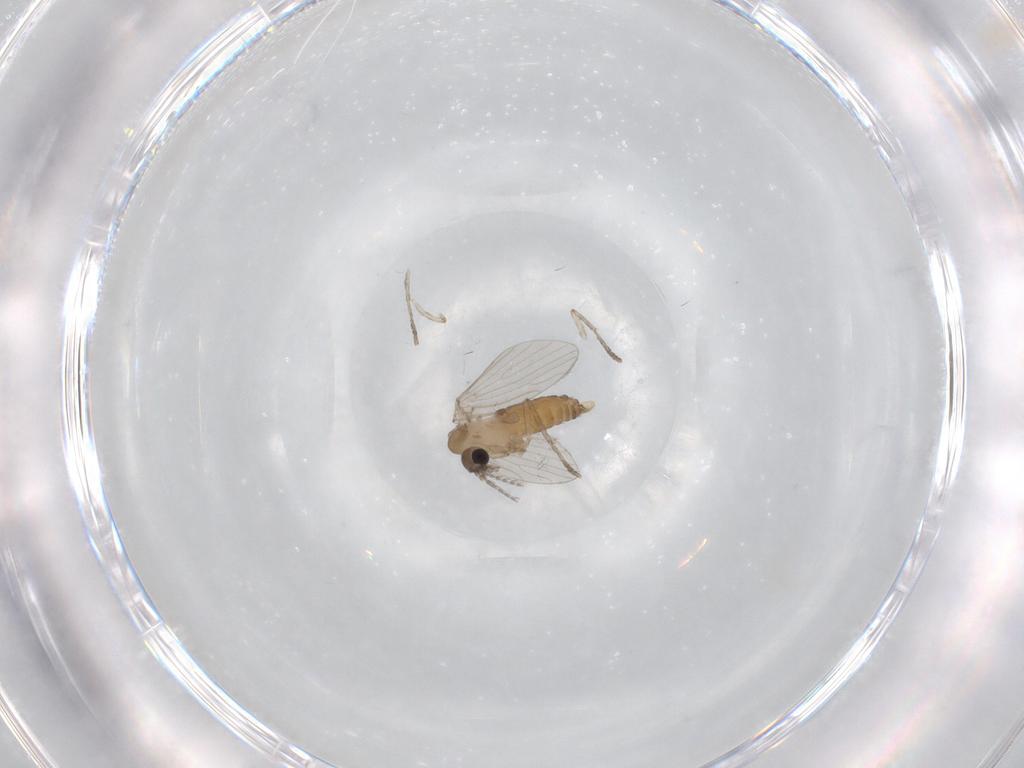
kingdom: Animalia
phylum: Arthropoda
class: Insecta
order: Diptera
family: Psychodidae
